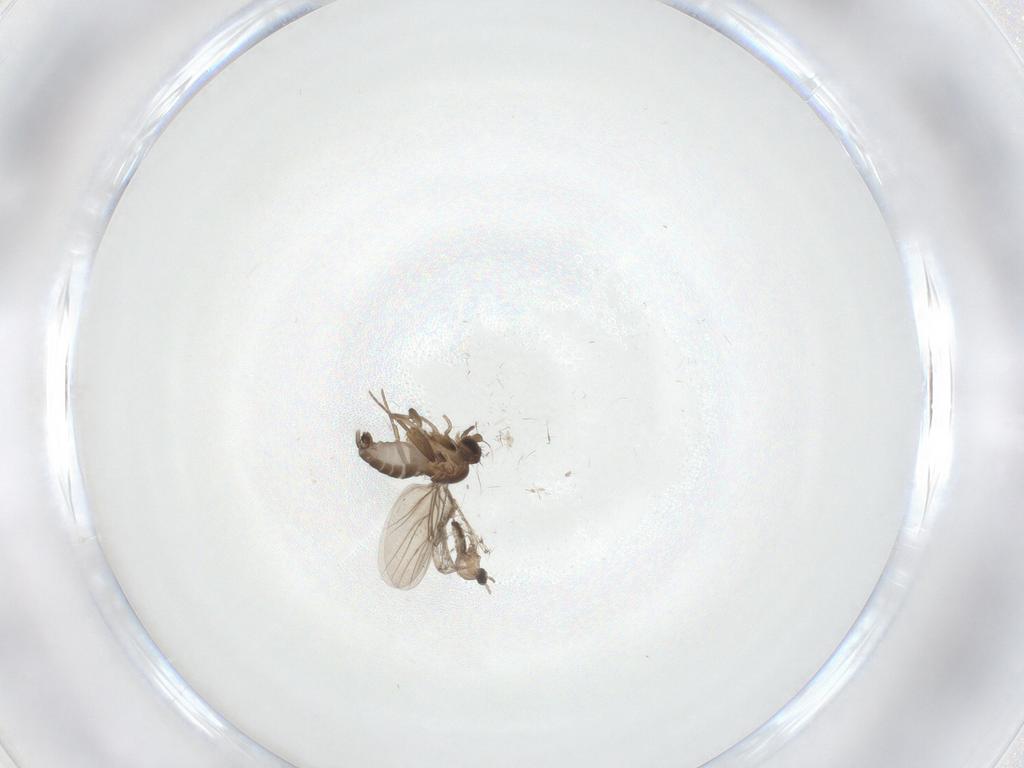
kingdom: Animalia
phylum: Arthropoda
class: Insecta
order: Diptera
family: Cecidomyiidae
